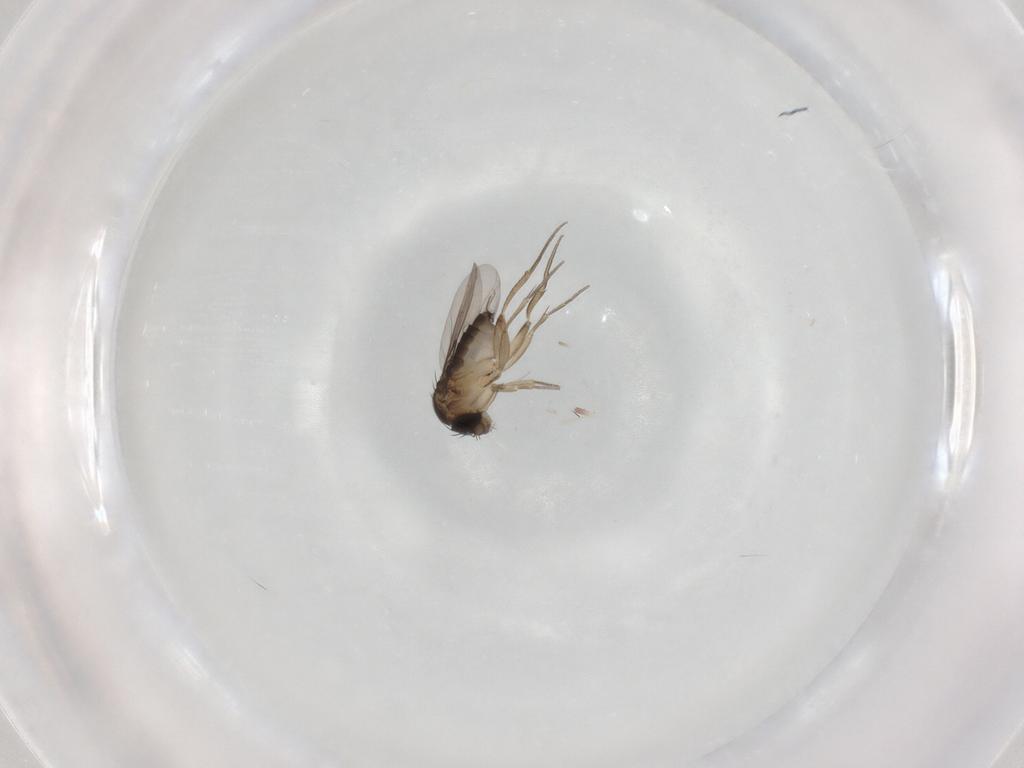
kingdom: Animalia
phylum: Arthropoda
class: Insecta
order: Diptera
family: Phoridae
